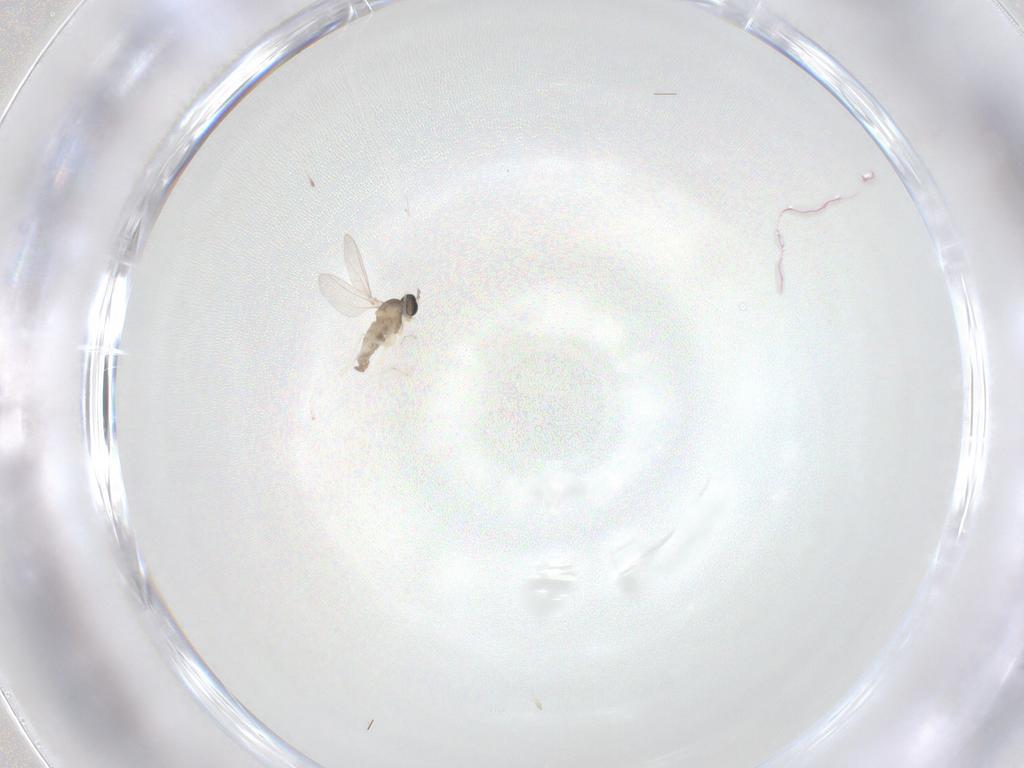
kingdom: Animalia
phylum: Arthropoda
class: Insecta
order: Diptera
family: Cecidomyiidae
